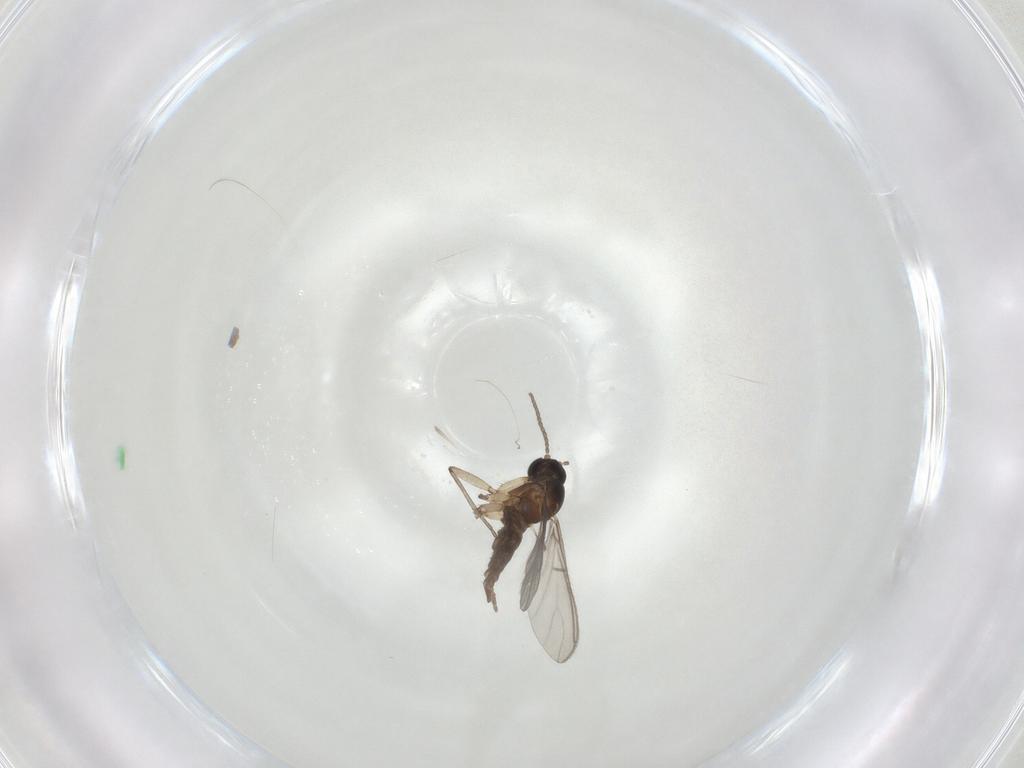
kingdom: Animalia
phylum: Arthropoda
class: Insecta
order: Diptera
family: Sciaridae
